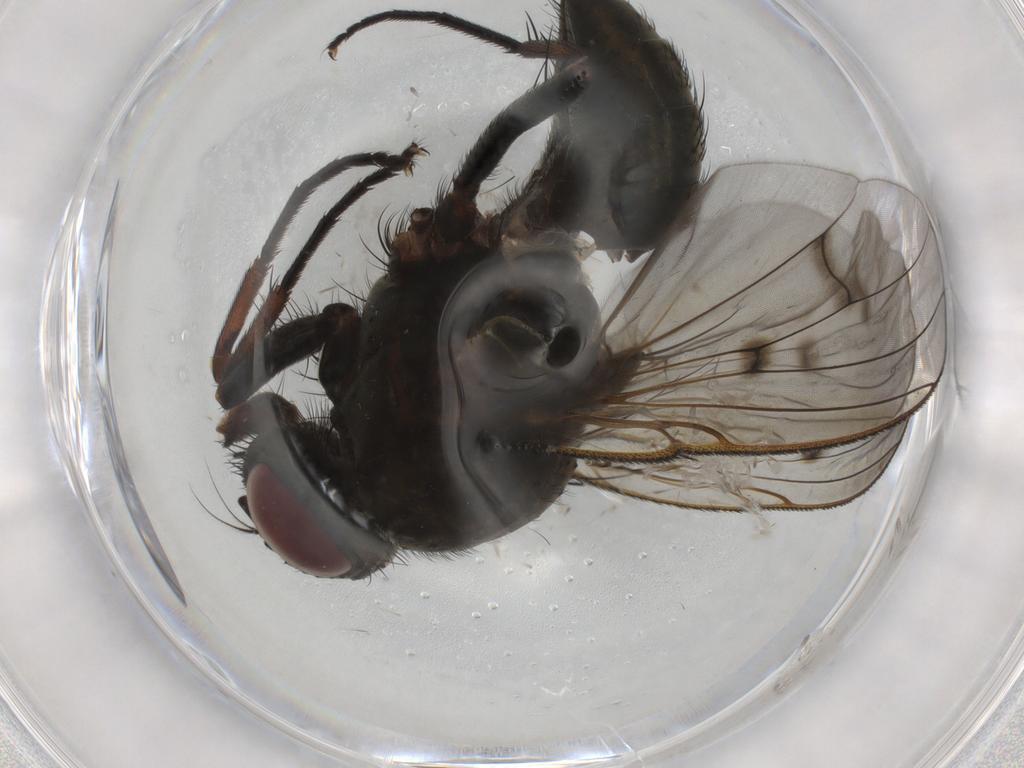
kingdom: Animalia
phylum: Arthropoda
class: Insecta
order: Diptera
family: Muscidae
